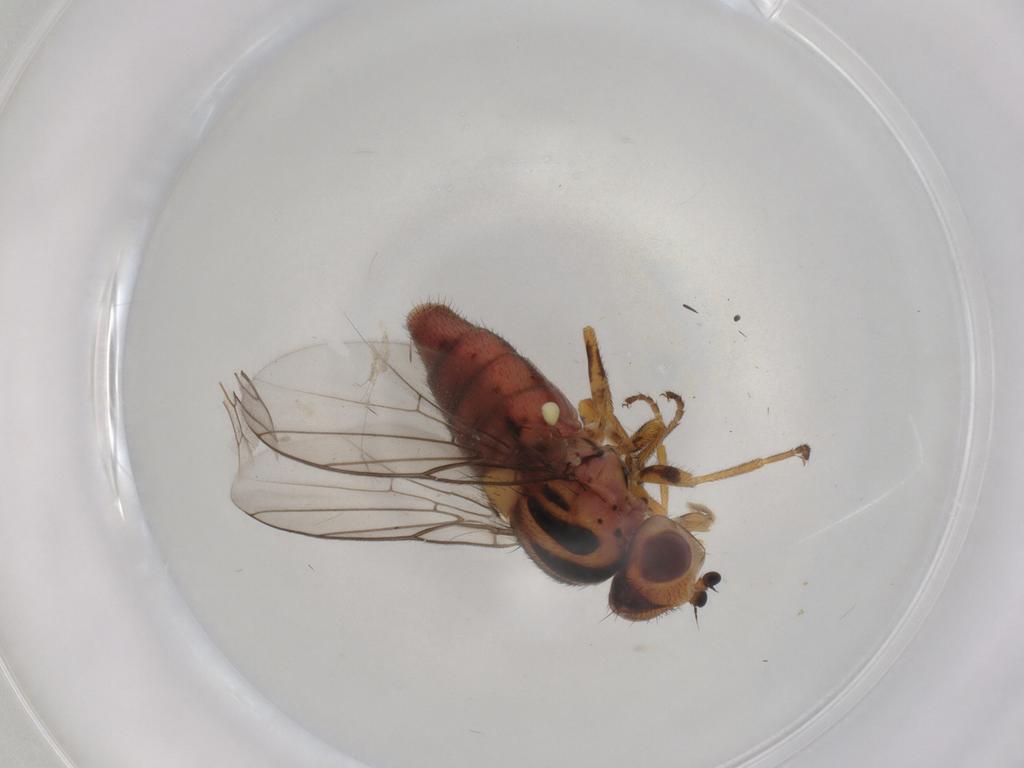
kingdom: Animalia
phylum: Arthropoda
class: Insecta
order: Diptera
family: Chloropidae
